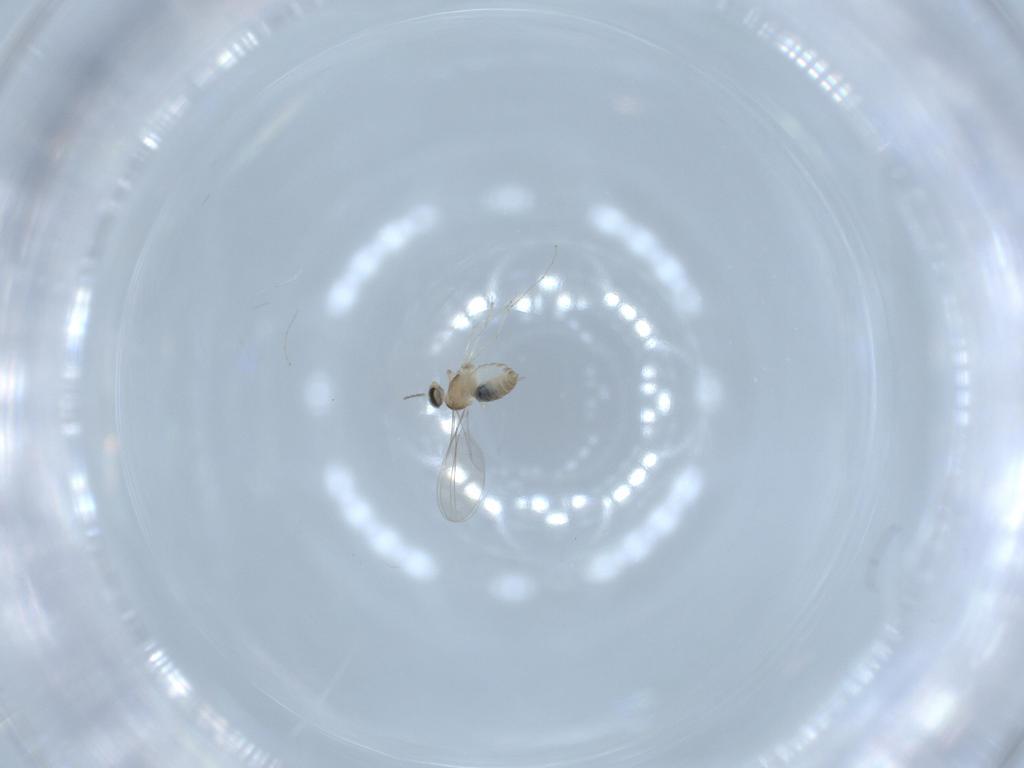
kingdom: Animalia
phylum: Arthropoda
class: Insecta
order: Diptera
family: Cecidomyiidae
